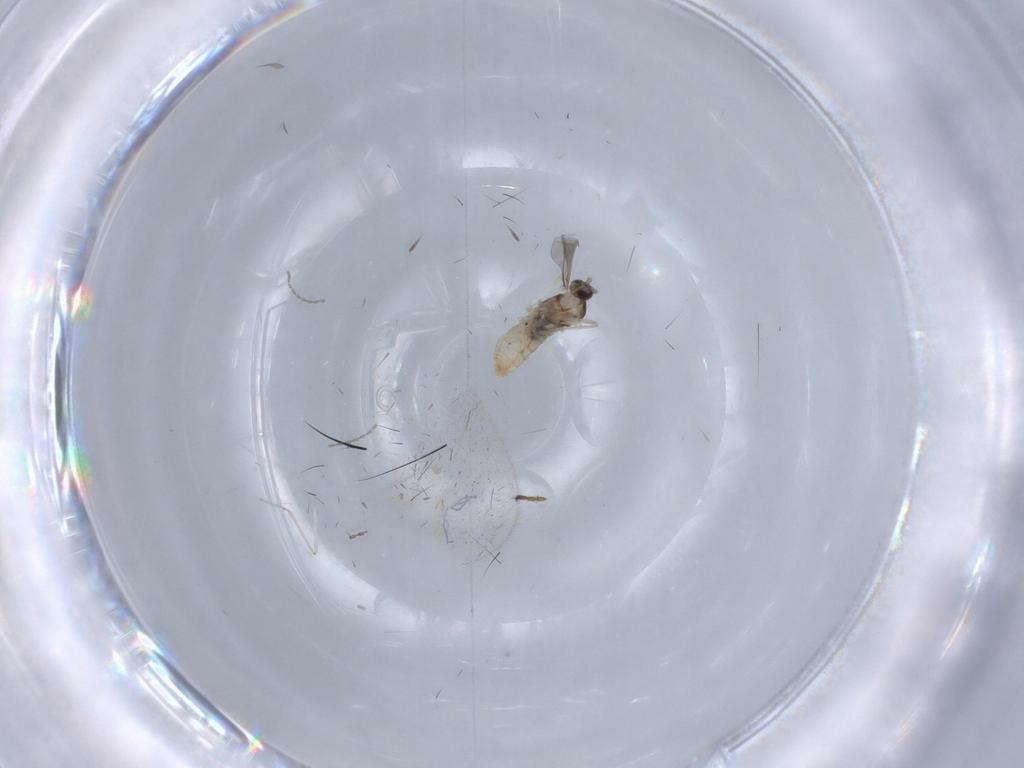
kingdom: Animalia
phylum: Arthropoda
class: Insecta
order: Diptera
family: Cecidomyiidae
